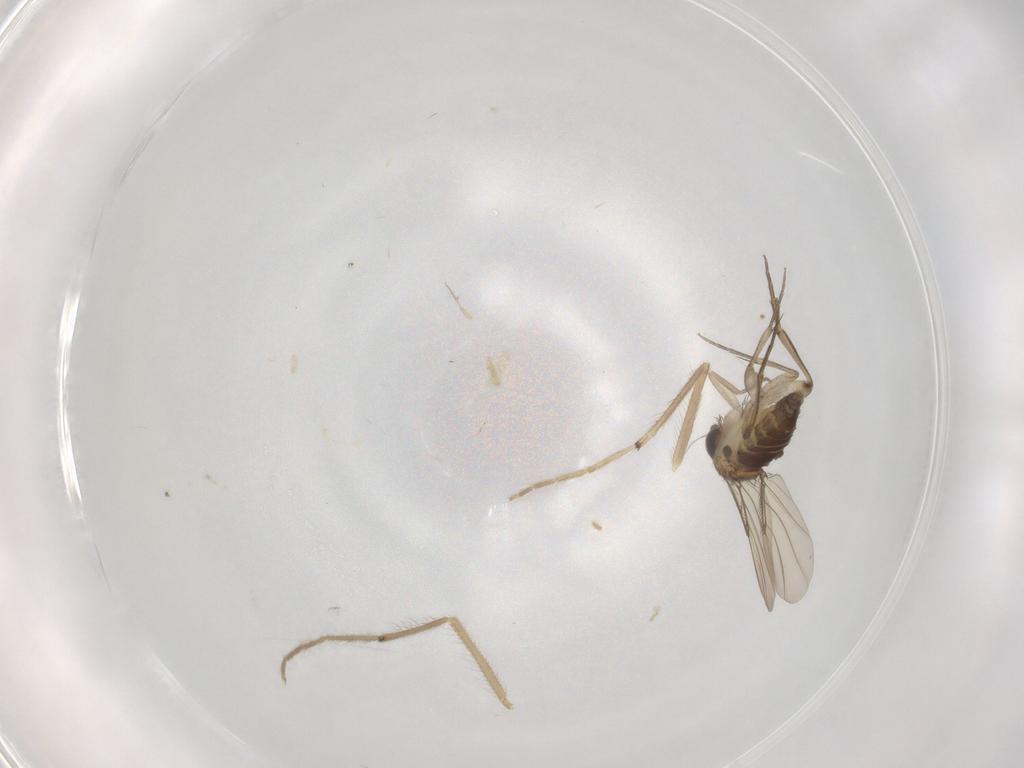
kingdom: Animalia
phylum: Arthropoda
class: Insecta
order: Diptera
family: Phoridae
